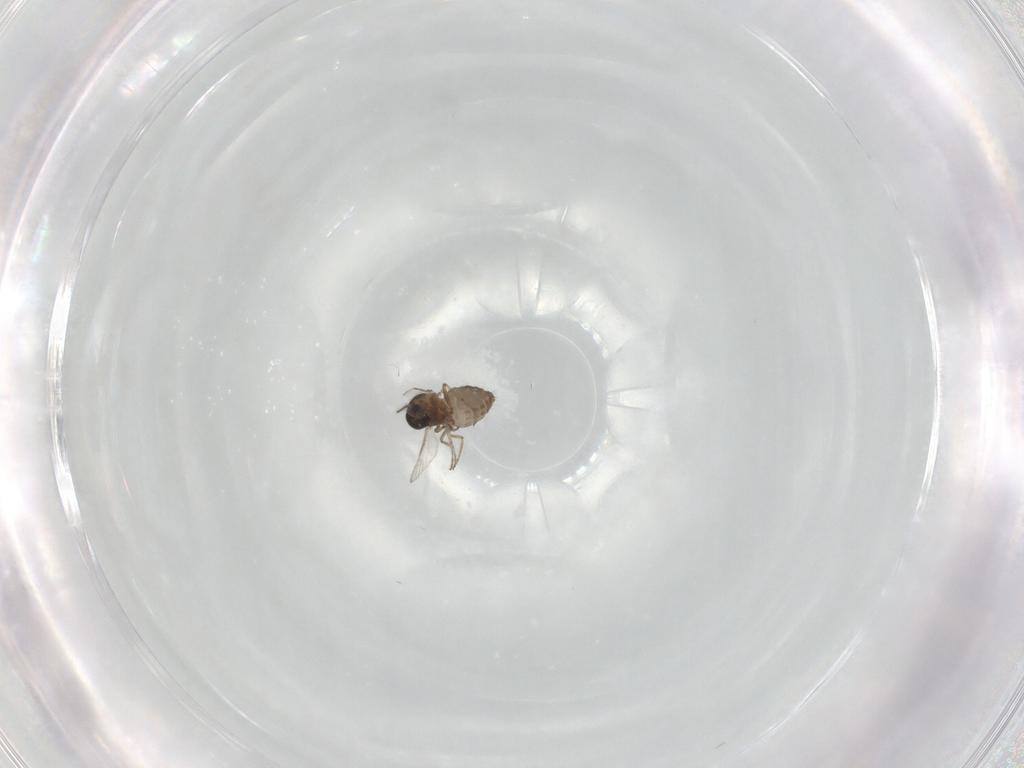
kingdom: Animalia
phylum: Arthropoda
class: Insecta
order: Diptera
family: Ceratopogonidae
